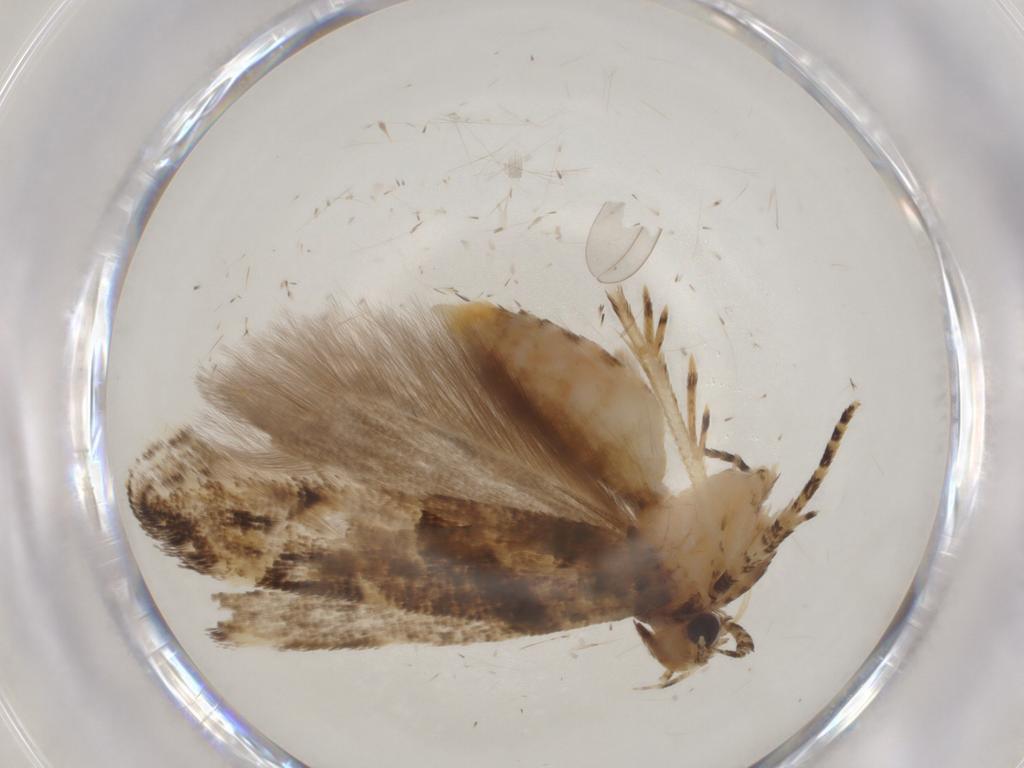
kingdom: Animalia
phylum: Arthropoda
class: Insecta
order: Lepidoptera
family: Gelechiidae
